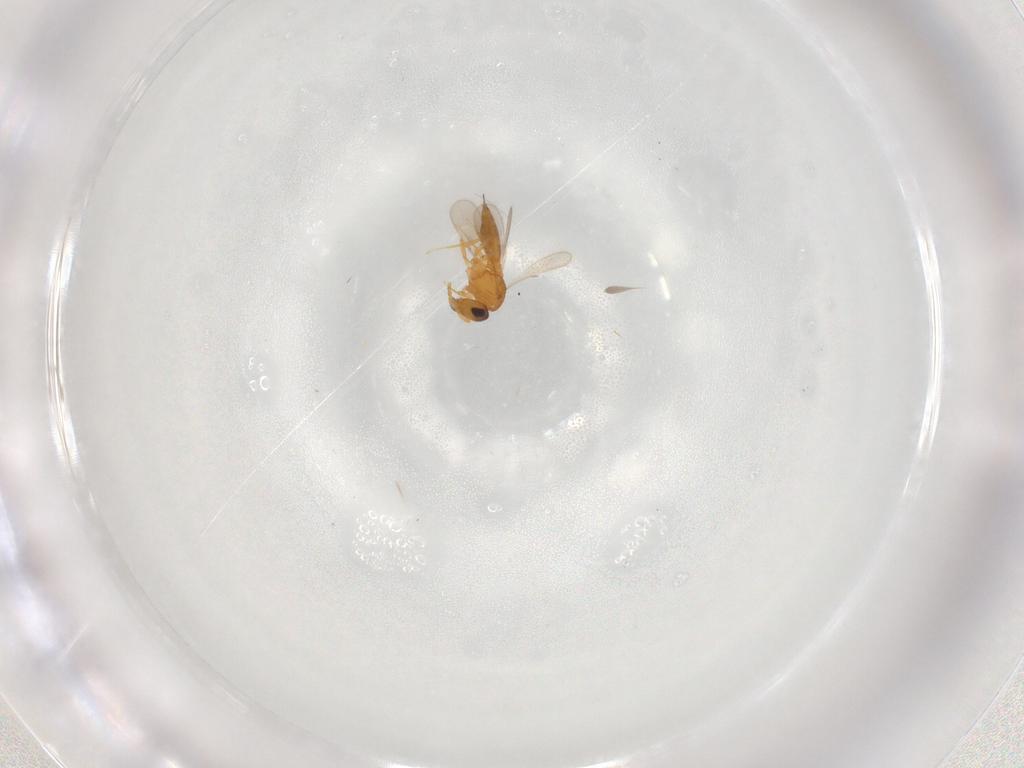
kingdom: Animalia
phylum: Arthropoda
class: Insecta
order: Hymenoptera
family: Scelionidae
